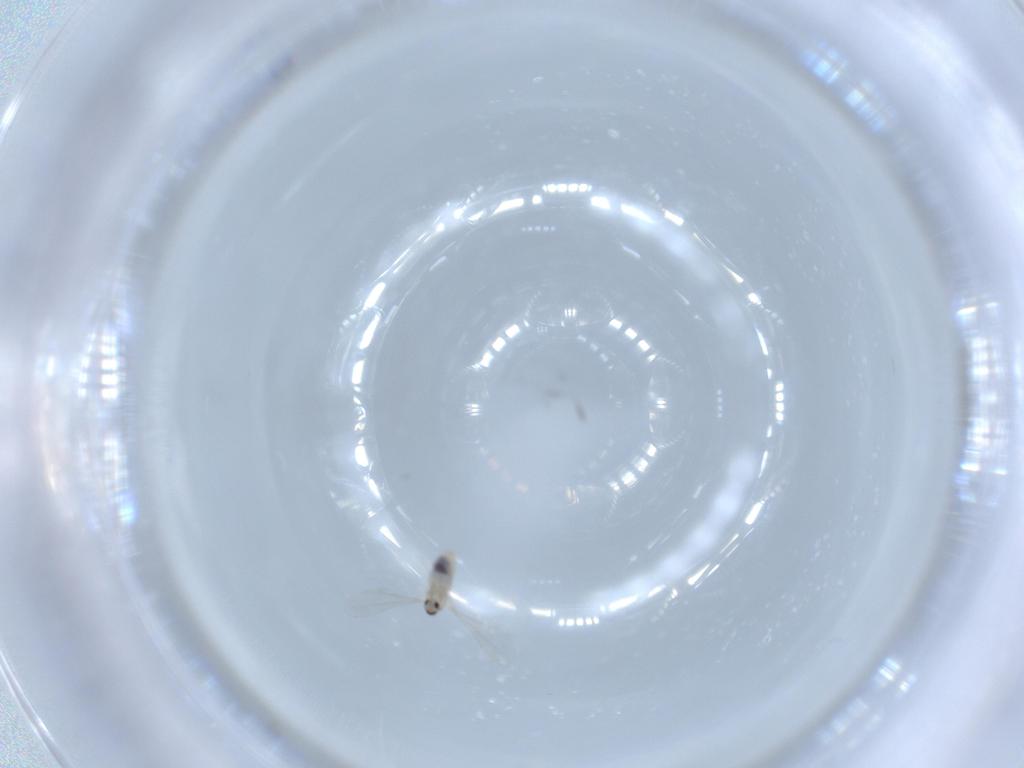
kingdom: Animalia
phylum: Arthropoda
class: Insecta
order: Diptera
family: Cecidomyiidae
